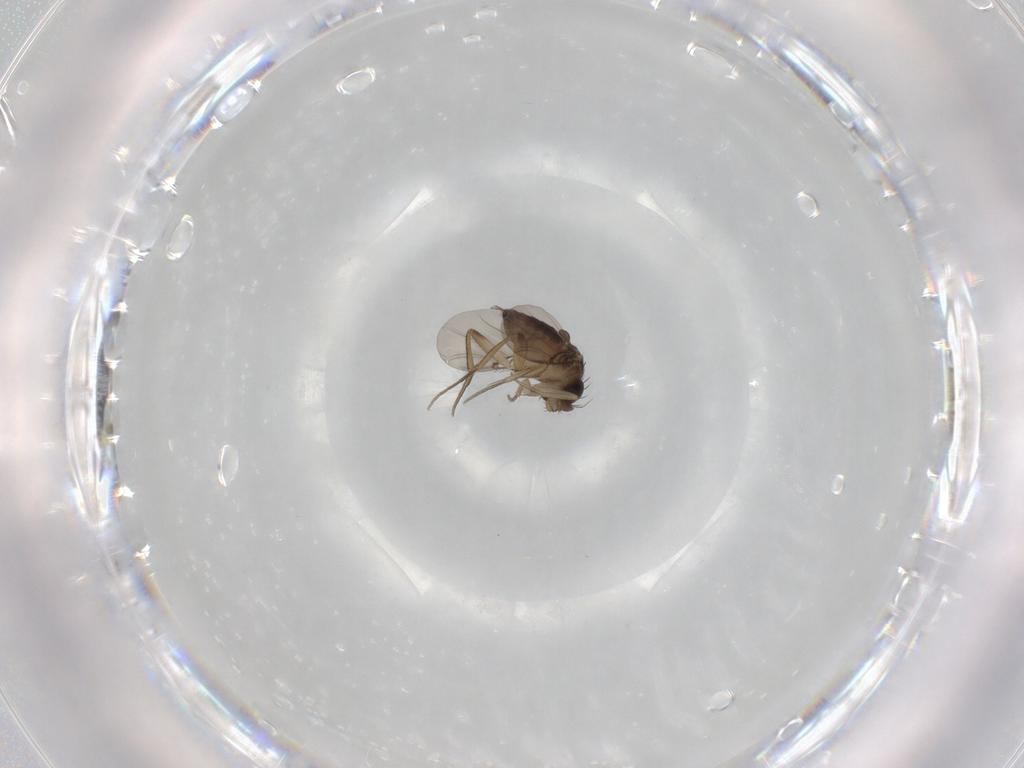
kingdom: Animalia
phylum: Arthropoda
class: Insecta
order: Diptera
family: Phoridae
